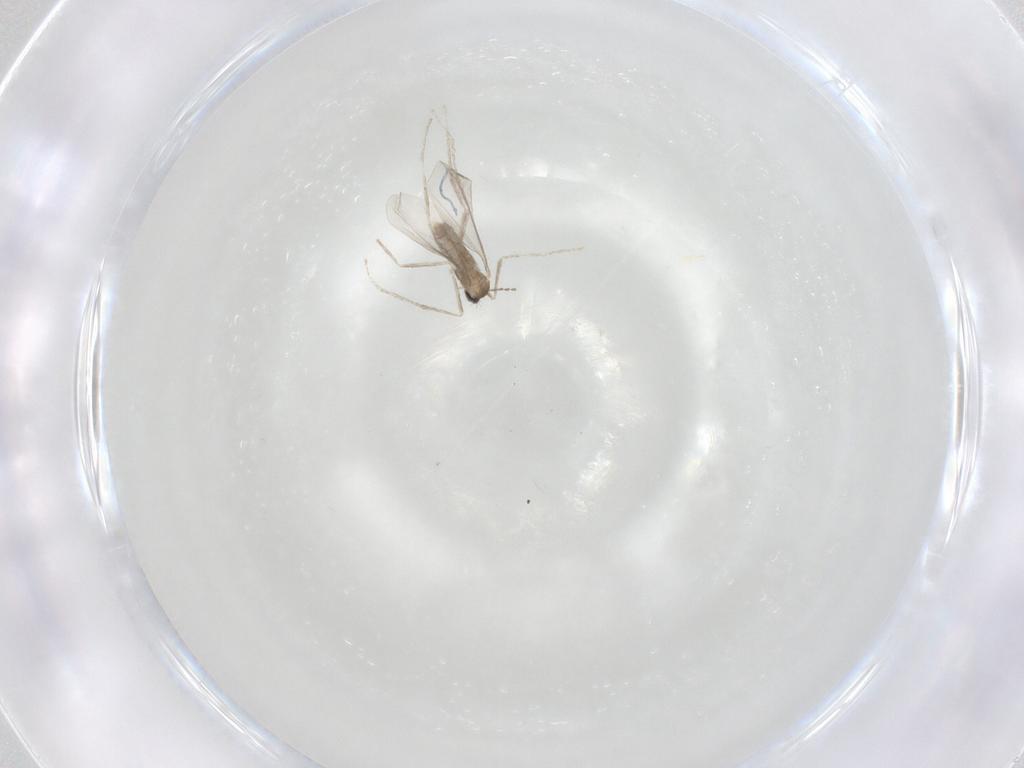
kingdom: Animalia
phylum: Arthropoda
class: Insecta
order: Diptera
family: Cecidomyiidae
